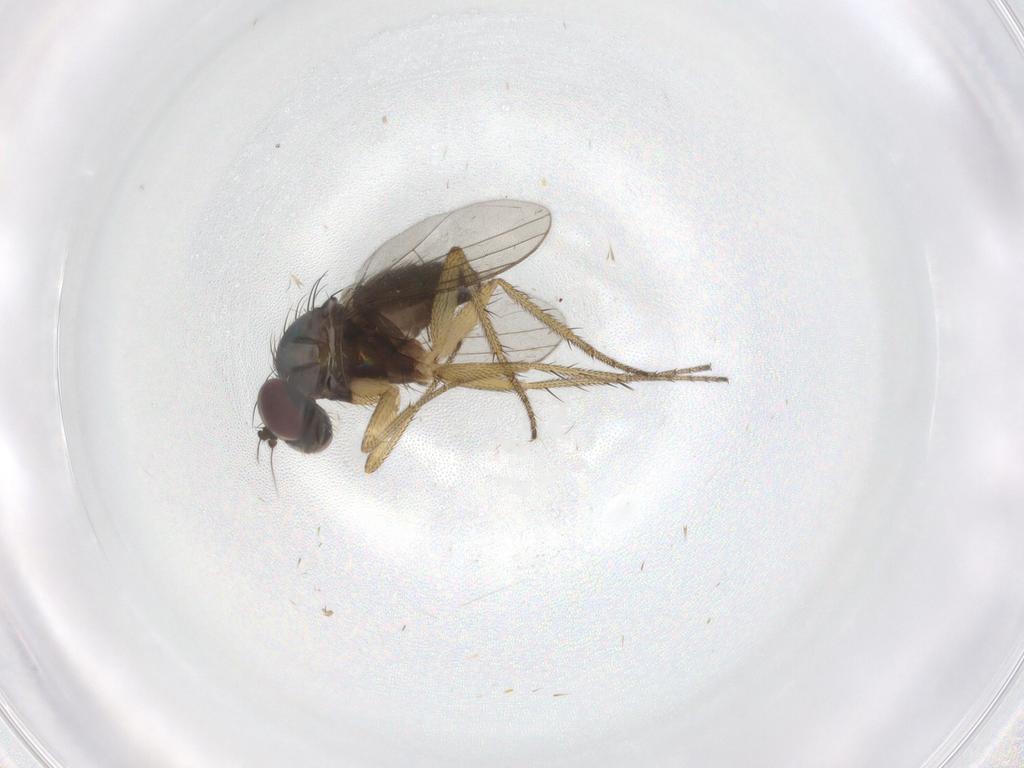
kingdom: Animalia
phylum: Arthropoda
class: Insecta
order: Diptera
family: Dolichopodidae
